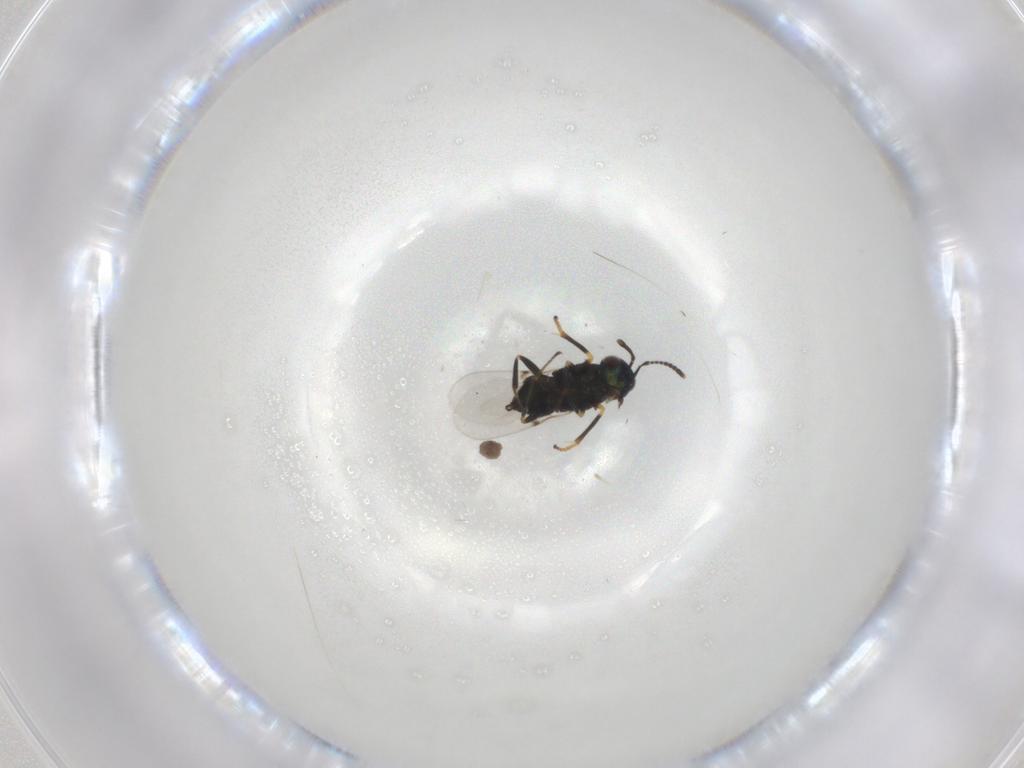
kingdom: Animalia
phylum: Arthropoda
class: Insecta
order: Hymenoptera
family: Encyrtidae
